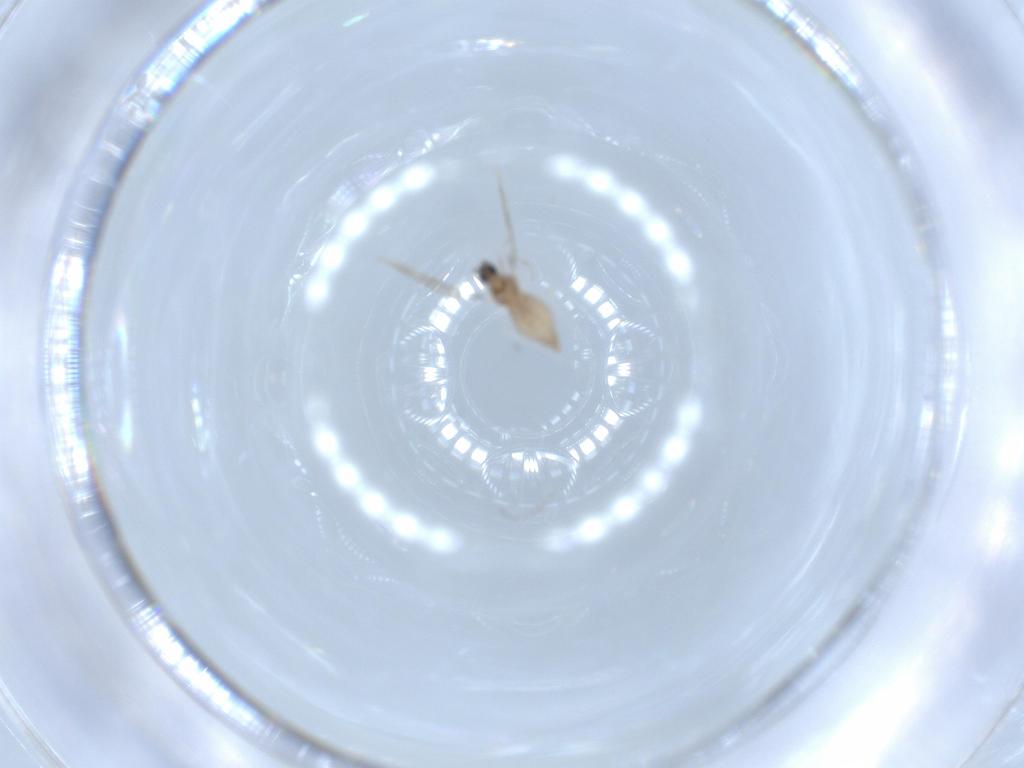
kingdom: Animalia
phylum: Arthropoda
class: Insecta
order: Diptera
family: Cecidomyiidae
